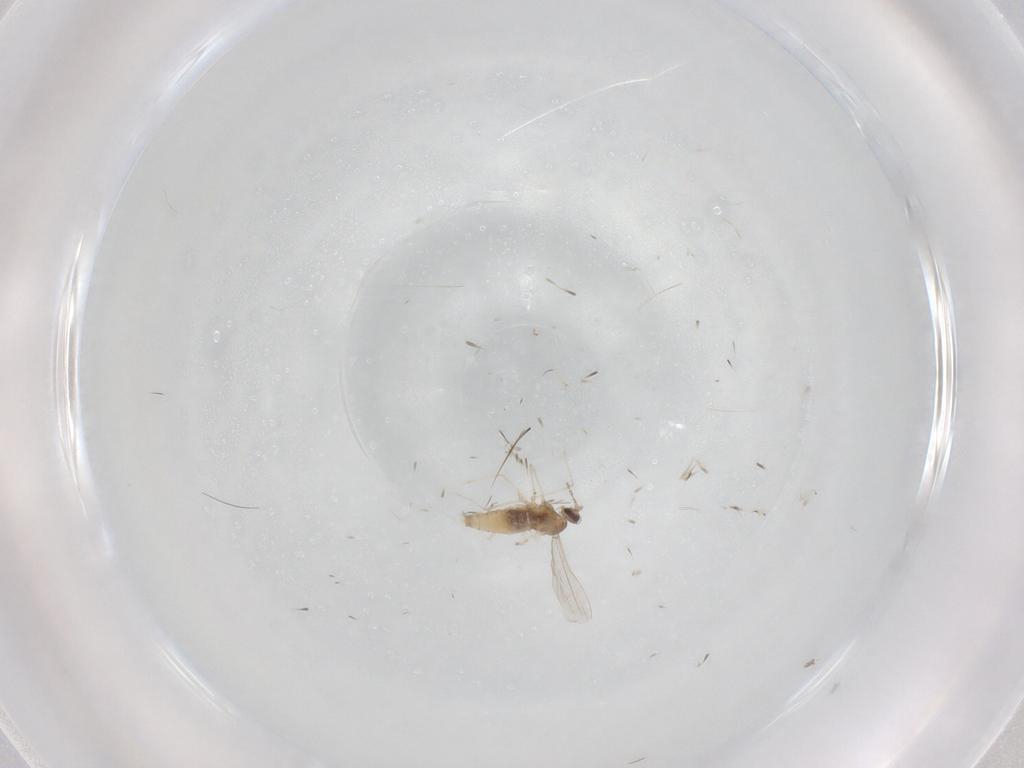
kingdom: Animalia
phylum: Arthropoda
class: Insecta
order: Diptera
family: Cecidomyiidae
